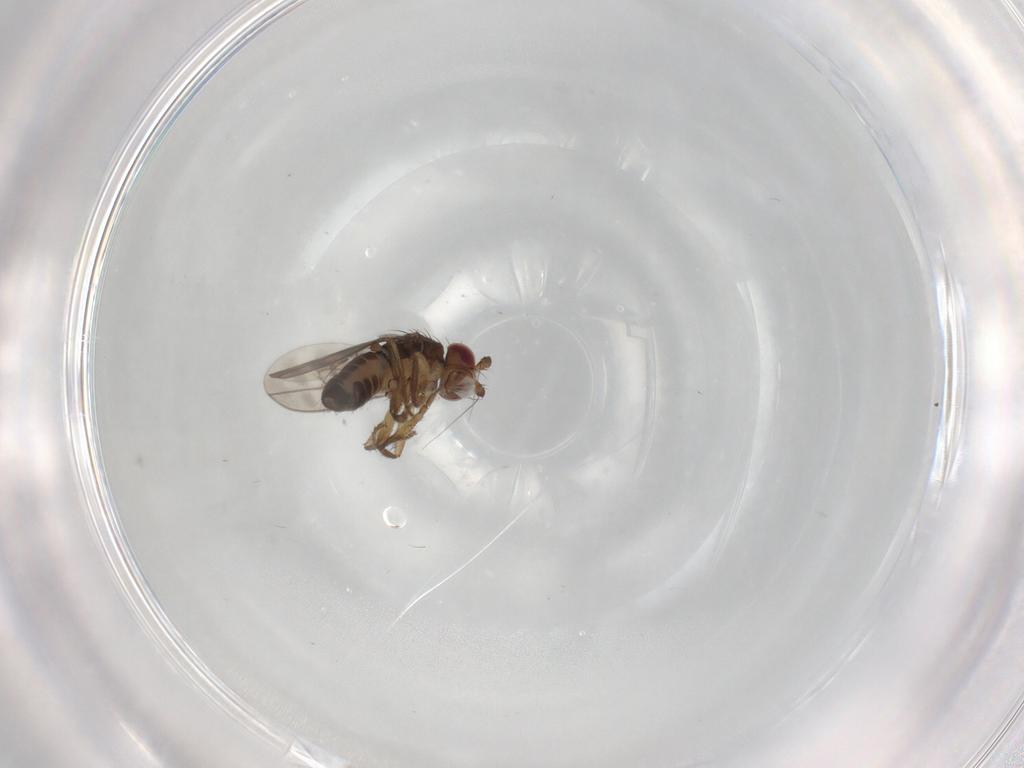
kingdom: Animalia
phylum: Arthropoda
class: Insecta
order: Diptera
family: Sphaeroceridae
